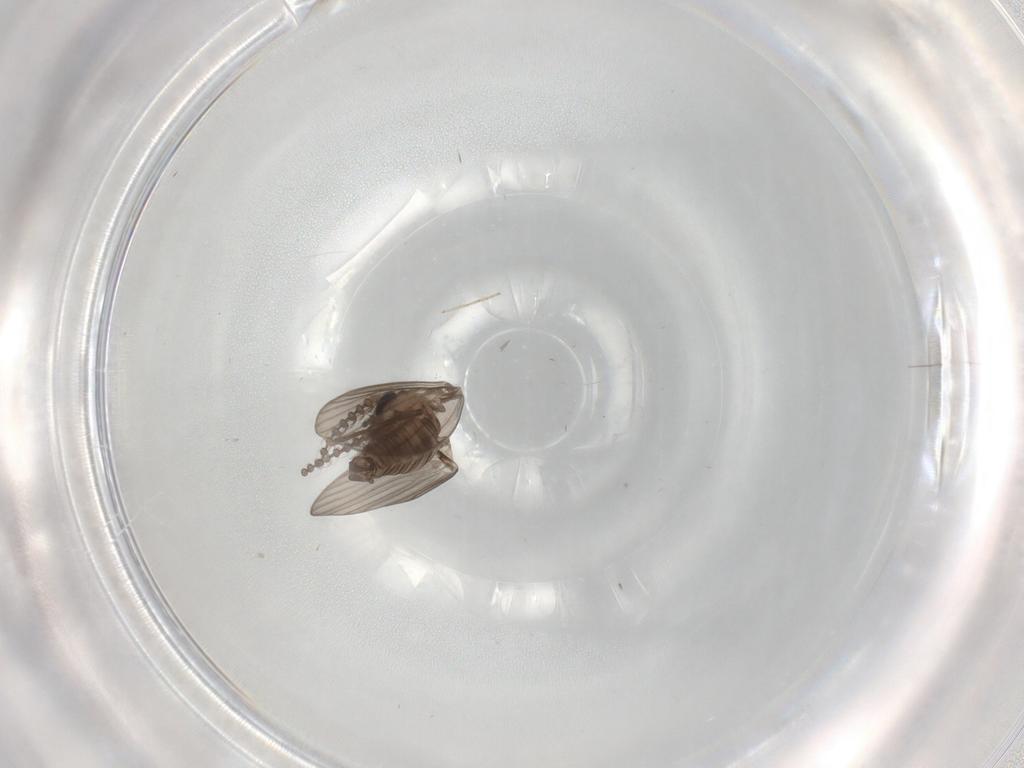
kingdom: Animalia
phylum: Arthropoda
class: Insecta
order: Diptera
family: Psychodidae
